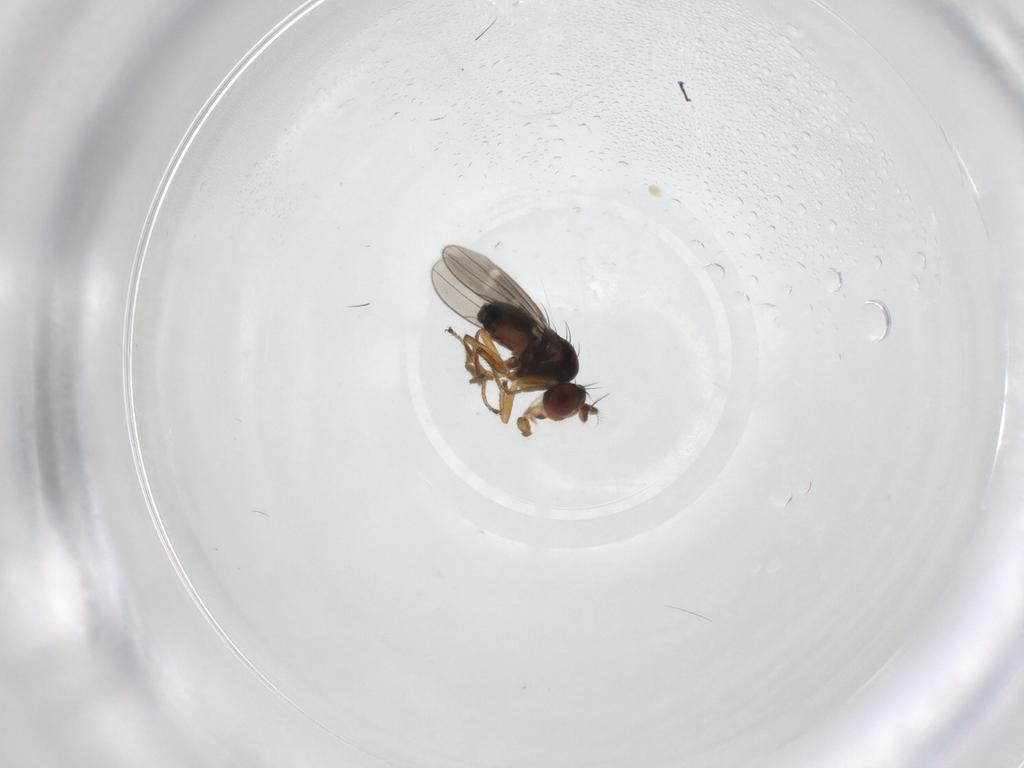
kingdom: Animalia
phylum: Arthropoda
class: Insecta
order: Diptera
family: Ephydridae
